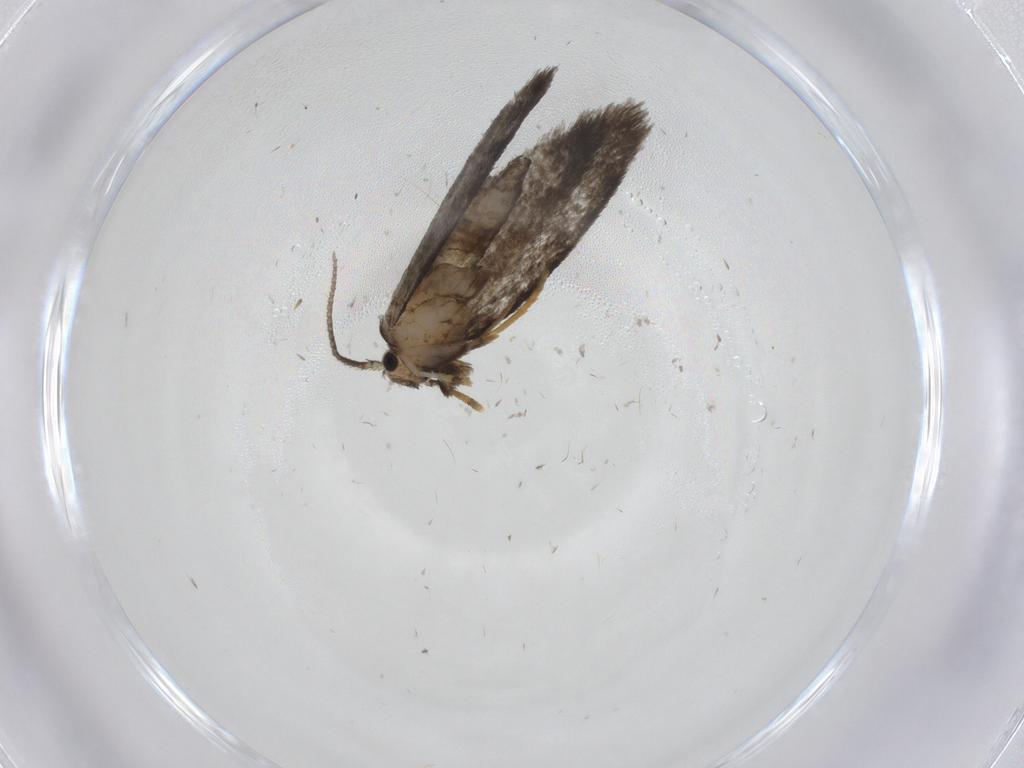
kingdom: Animalia
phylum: Arthropoda
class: Insecta
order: Lepidoptera
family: Psychidae
